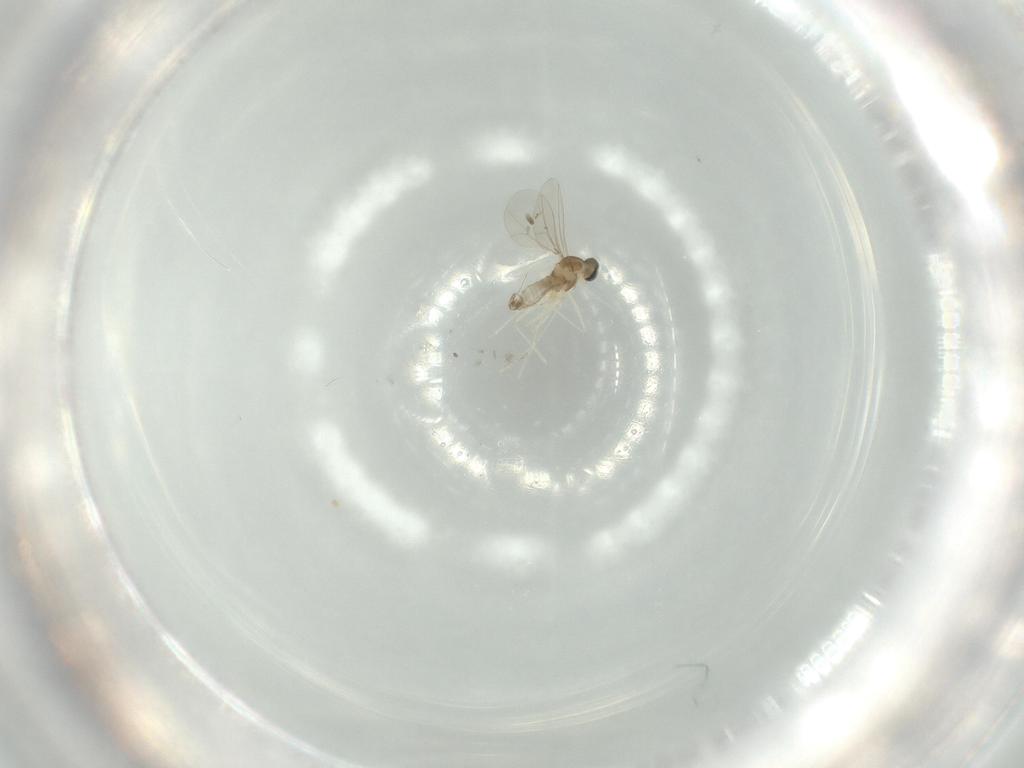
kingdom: Animalia
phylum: Arthropoda
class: Insecta
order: Diptera
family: Cecidomyiidae
